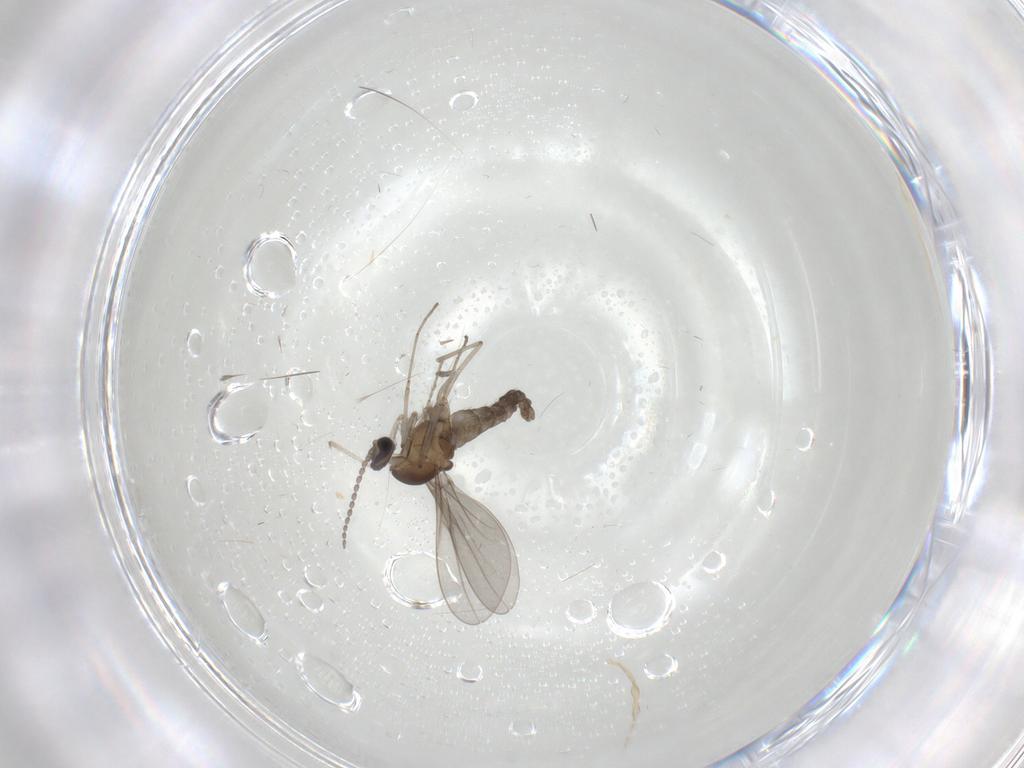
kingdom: Animalia
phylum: Arthropoda
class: Insecta
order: Diptera
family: Cecidomyiidae
